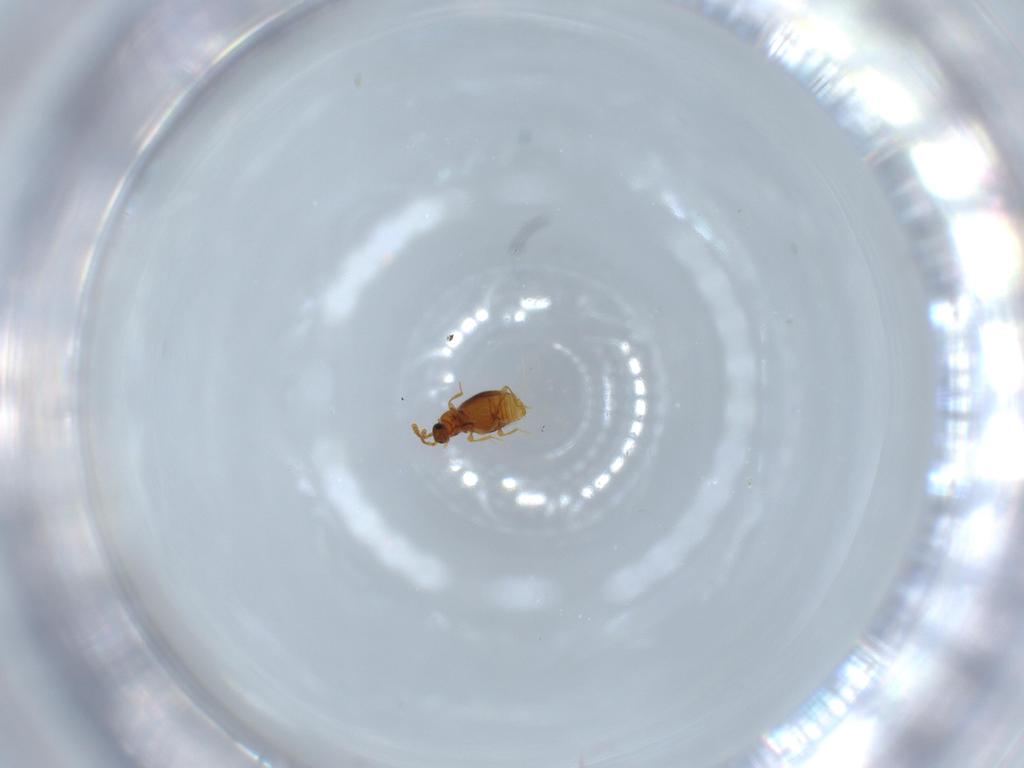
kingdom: Animalia
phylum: Arthropoda
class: Insecta
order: Coleoptera
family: Staphylinidae
